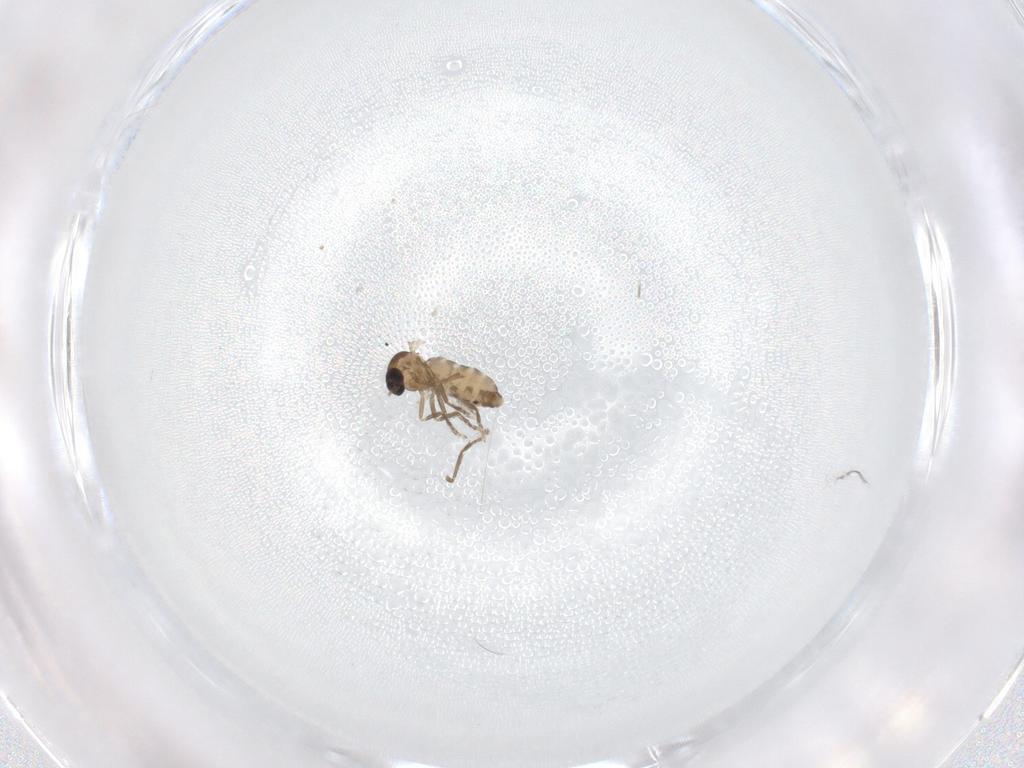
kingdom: Animalia
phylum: Arthropoda
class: Insecta
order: Diptera
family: Ceratopogonidae
